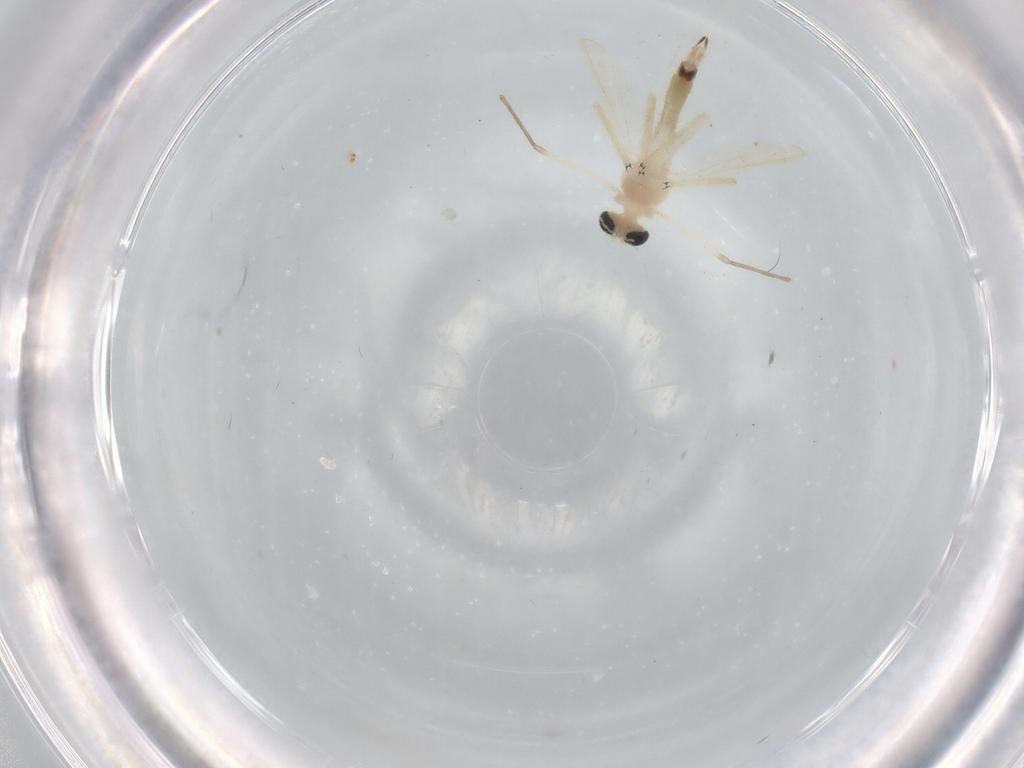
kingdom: Animalia
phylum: Arthropoda
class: Insecta
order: Diptera
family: Chironomidae
